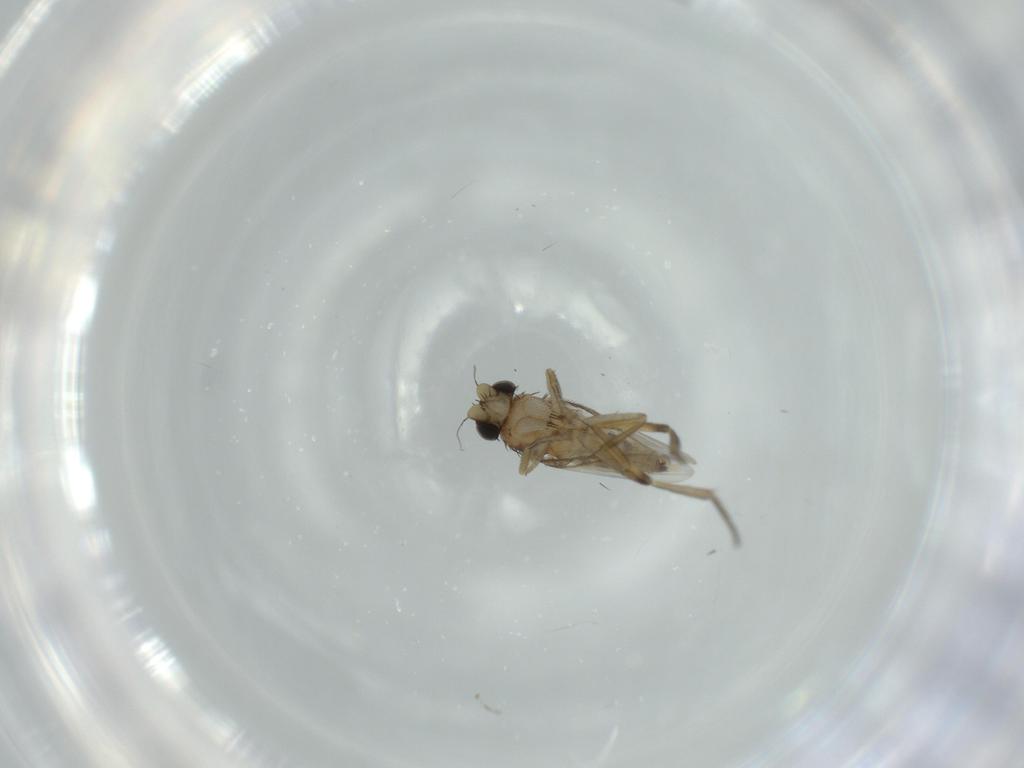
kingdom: Animalia
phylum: Arthropoda
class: Insecta
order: Diptera
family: Phoridae
